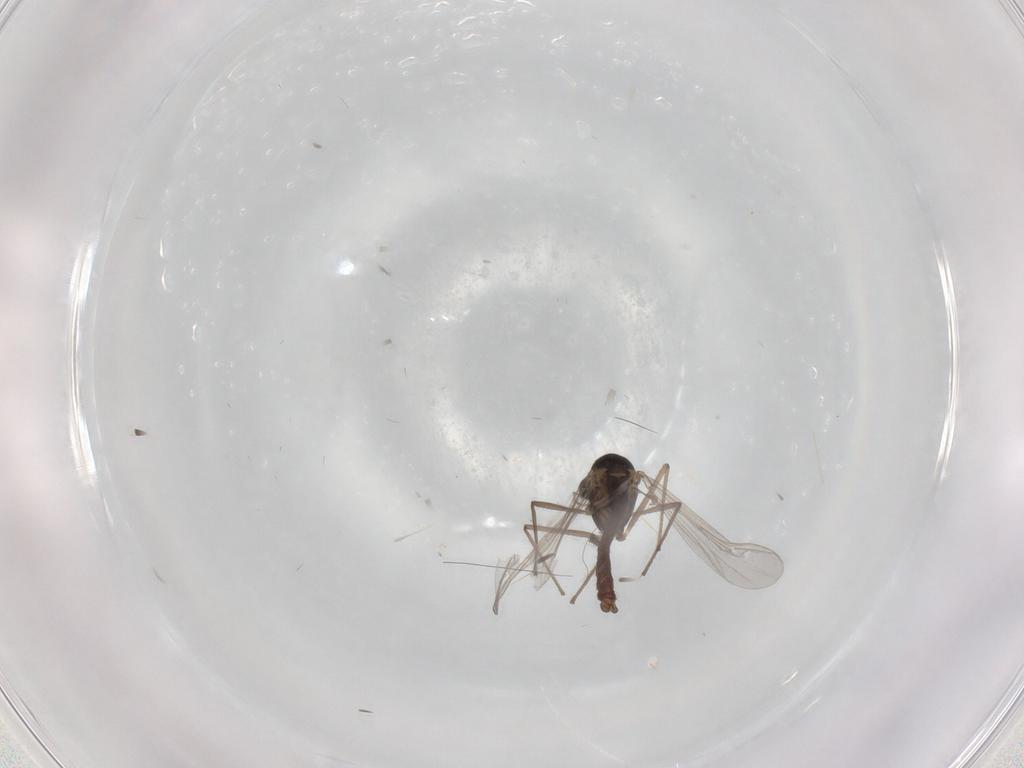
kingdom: Animalia
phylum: Arthropoda
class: Insecta
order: Diptera
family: Chironomidae
